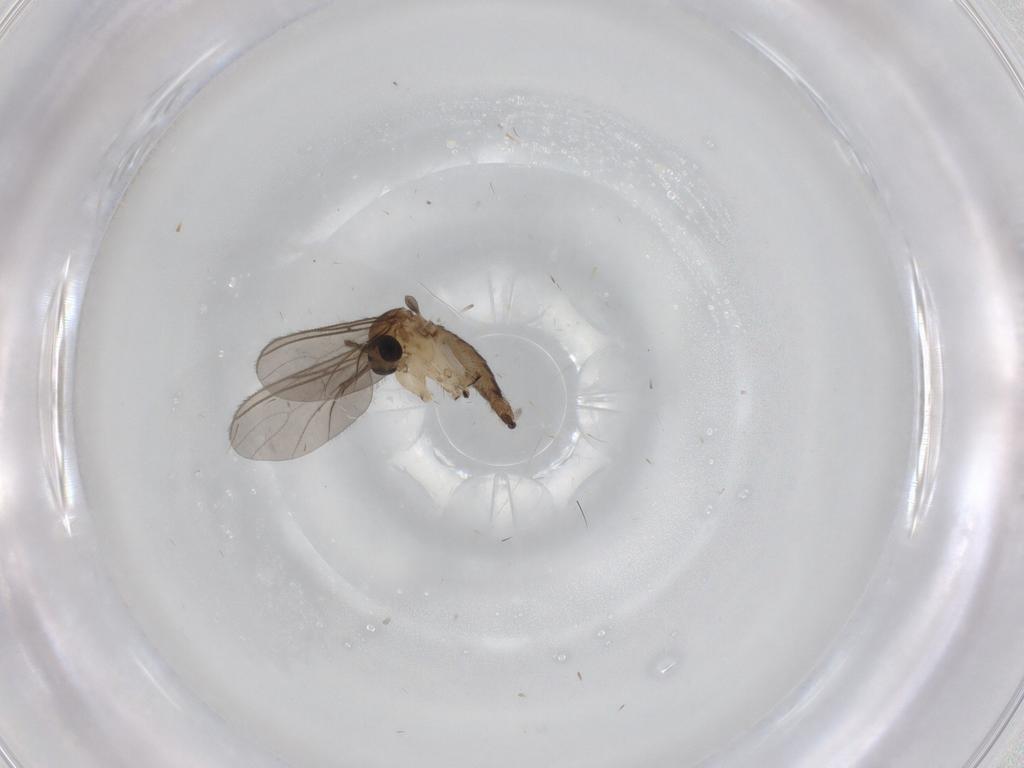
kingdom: Animalia
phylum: Arthropoda
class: Insecta
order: Diptera
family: Sciaridae
